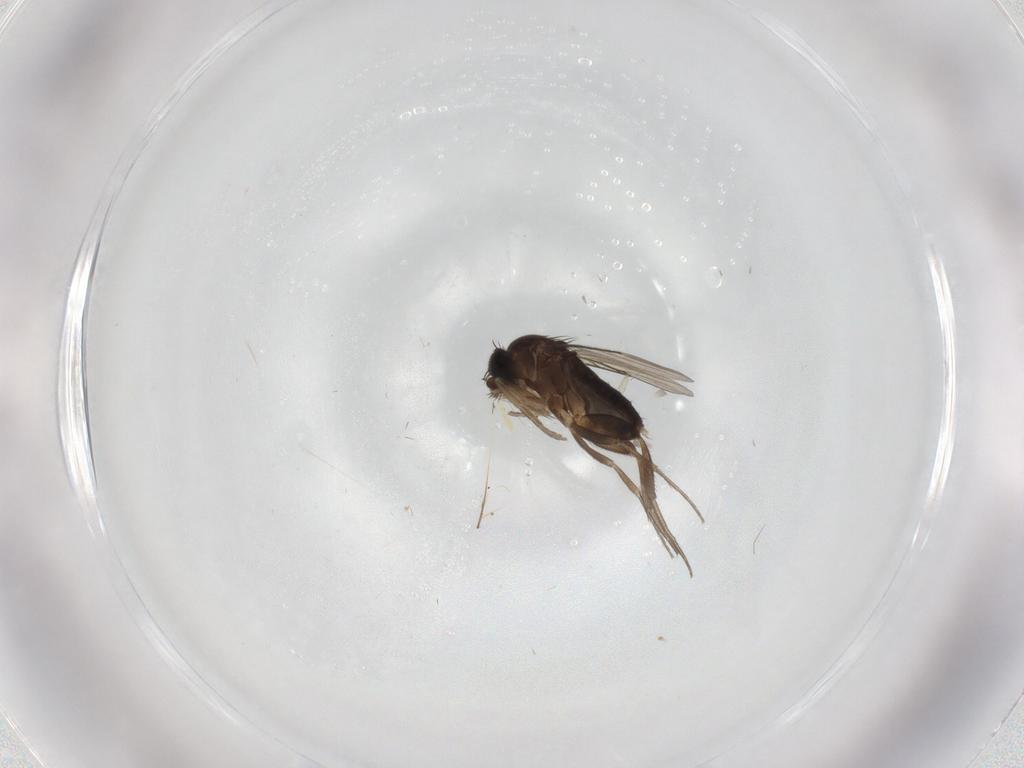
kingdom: Animalia
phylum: Arthropoda
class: Insecta
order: Diptera
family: Phoridae
